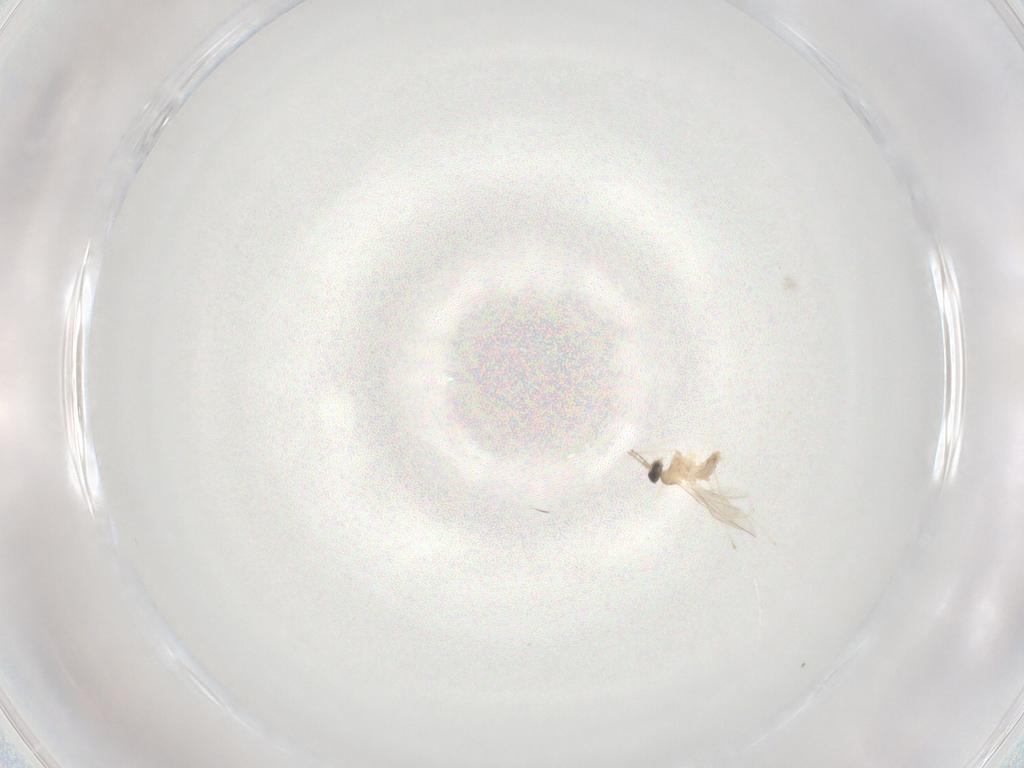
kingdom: Animalia
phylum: Arthropoda
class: Insecta
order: Diptera
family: Cecidomyiidae
